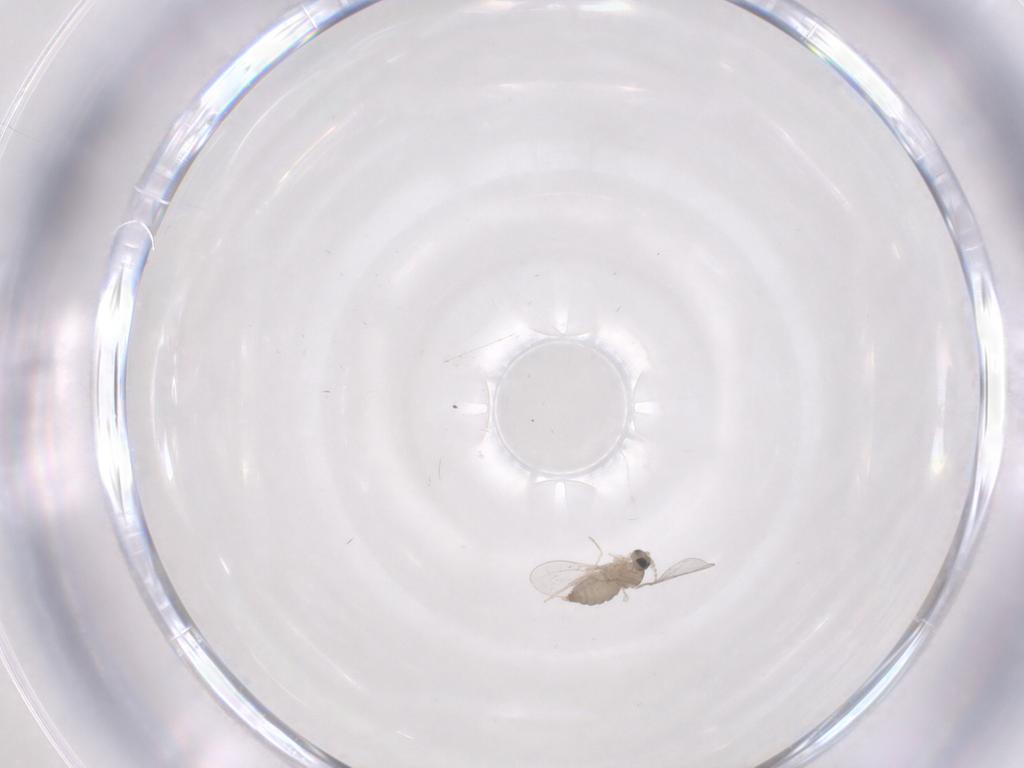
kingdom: Animalia
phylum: Arthropoda
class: Insecta
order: Diptera
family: Cecidomyiidae
